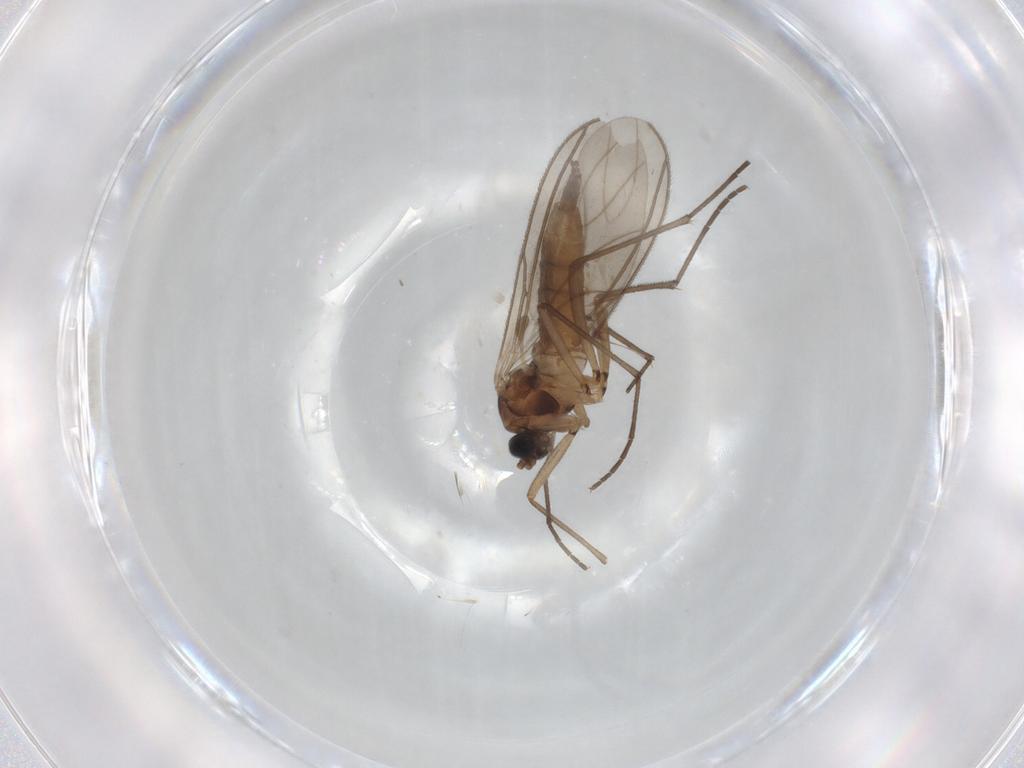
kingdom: Animalia
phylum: Arthropoda
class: Insecta
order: Diptera
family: Sciaridae
